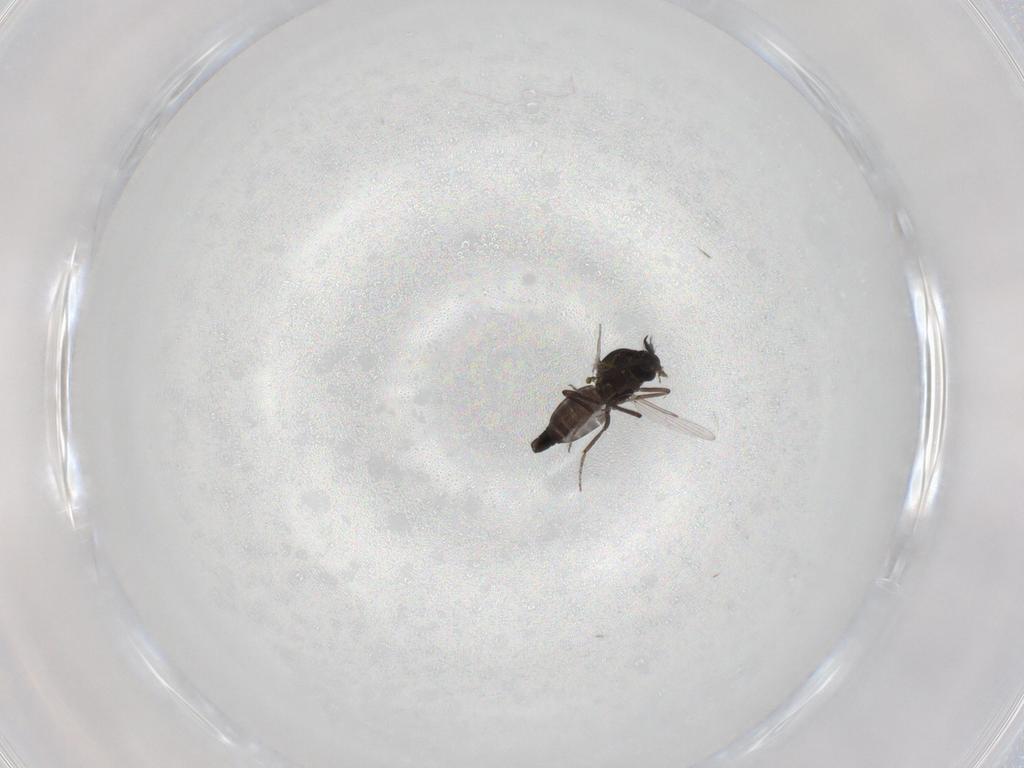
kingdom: Animalia
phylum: Arthropoda
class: Insecta
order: Diptera
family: Ceratopogonidae
